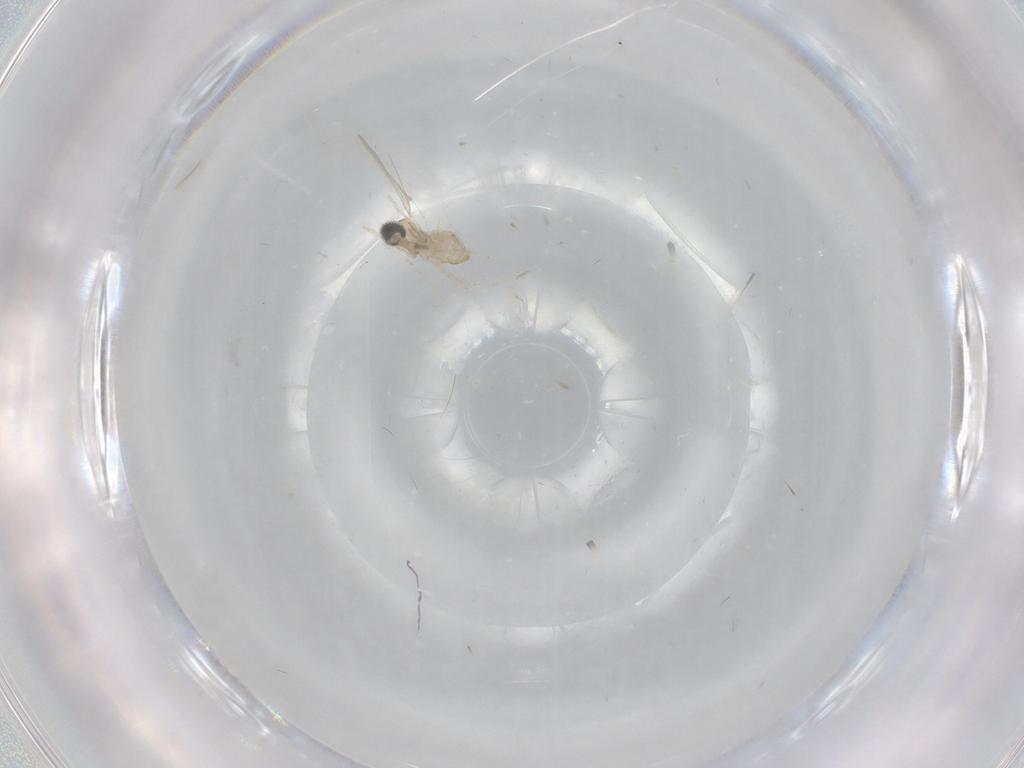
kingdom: Animalia
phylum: Arthropoda
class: Insecta
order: Diptera
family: Cecidomyiidae
